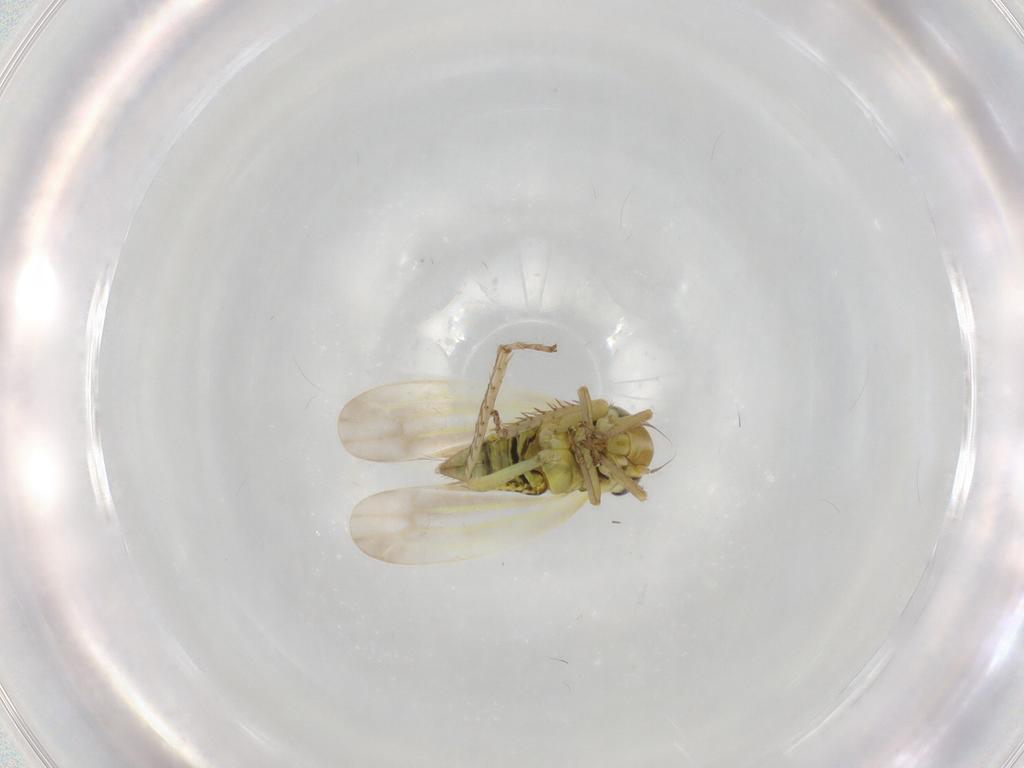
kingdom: Animalia
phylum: Arthropoda
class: Insecta
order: Hemiptera
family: Cicadellidae
